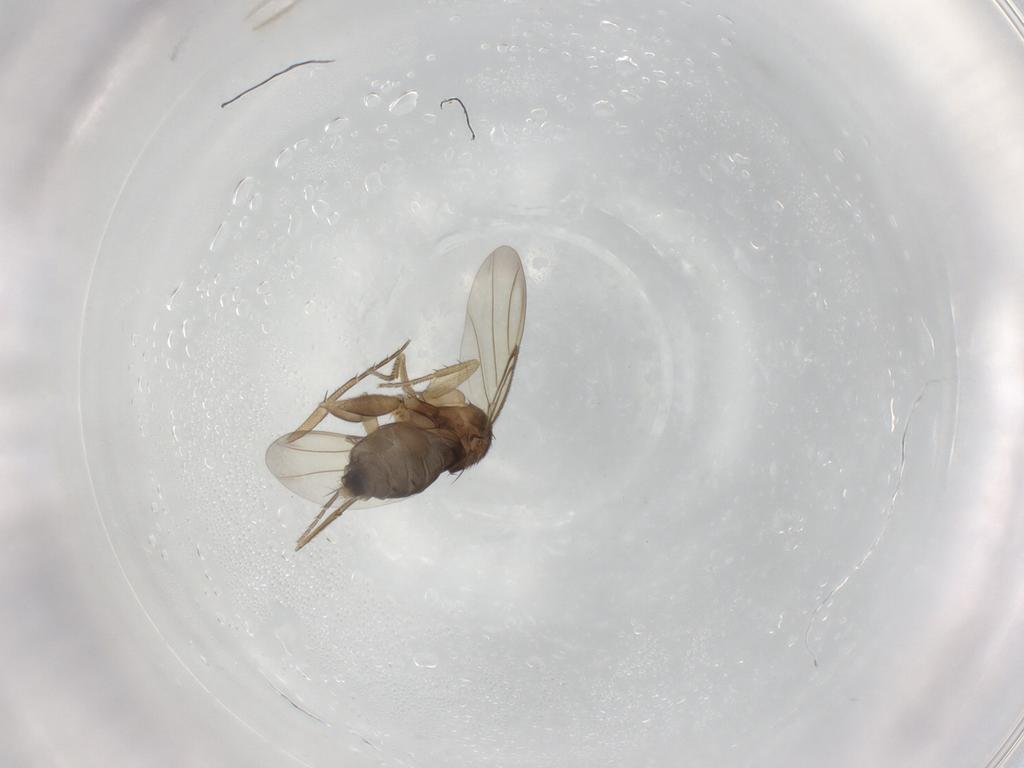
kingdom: Animalia
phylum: Arthropoda
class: Insecta
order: Diptera
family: Phoridae
